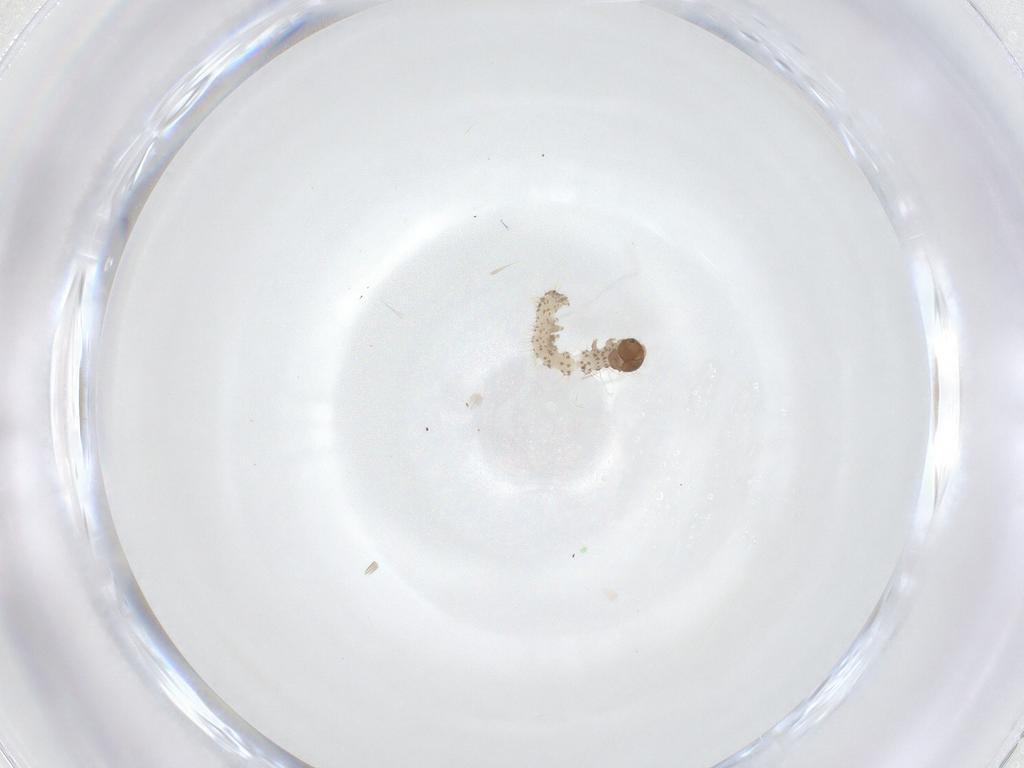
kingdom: Animalia
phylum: Arthropoda
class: Insecta
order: Lepidoptera
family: Erebidae
